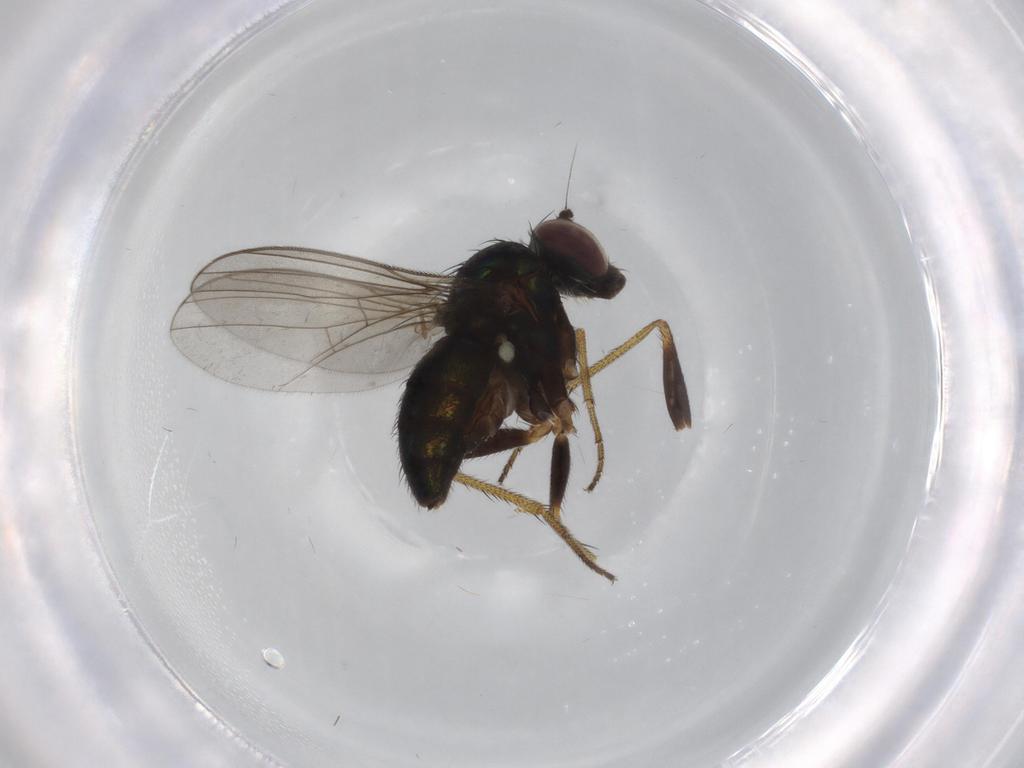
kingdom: Animalia
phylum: Arthropoda
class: Insecta
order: Diptera
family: Dolichopodidae
